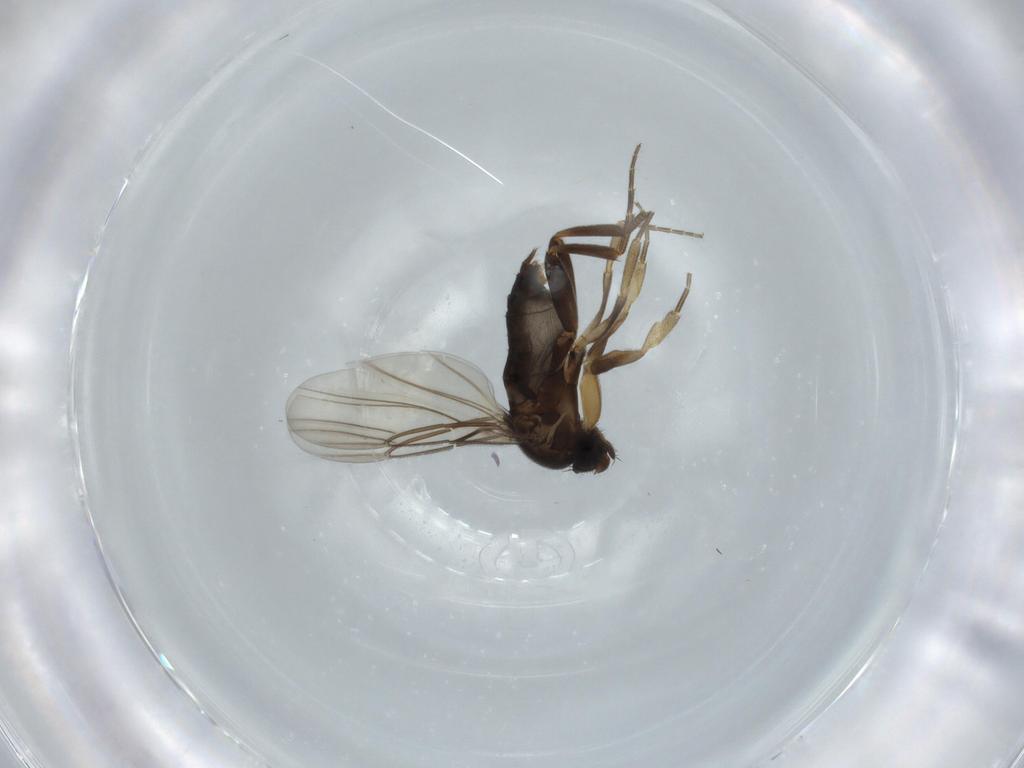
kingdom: Animalia
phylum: Arthropoda
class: Insecta
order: Diptera
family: Phoridae
